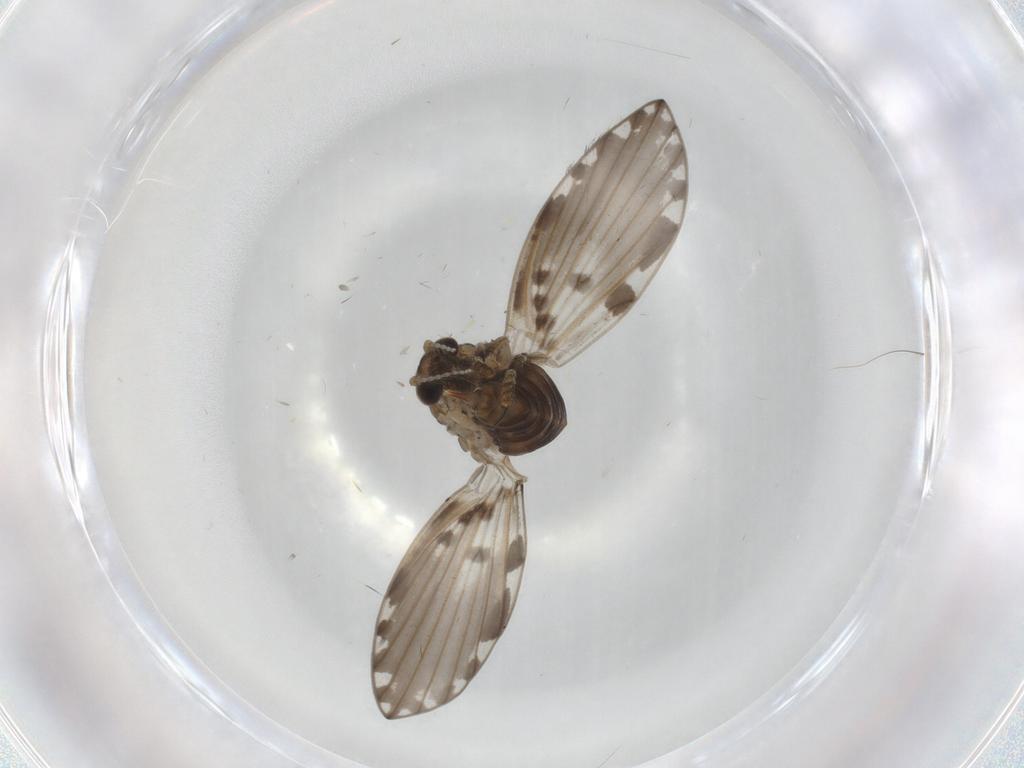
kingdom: Animalia
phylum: Arthropoda
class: Insecta
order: Diptera
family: Psychodidae
